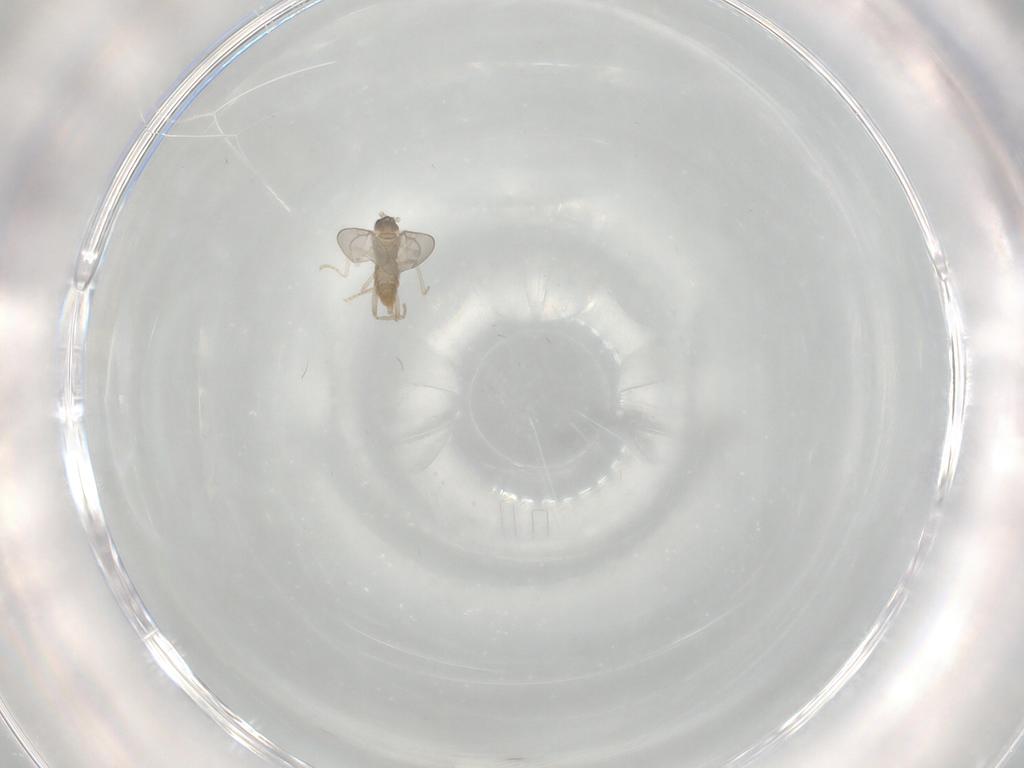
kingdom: Animalia
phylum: Arthropoda
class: Insecta
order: Diptera
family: Cecidomyiidae
